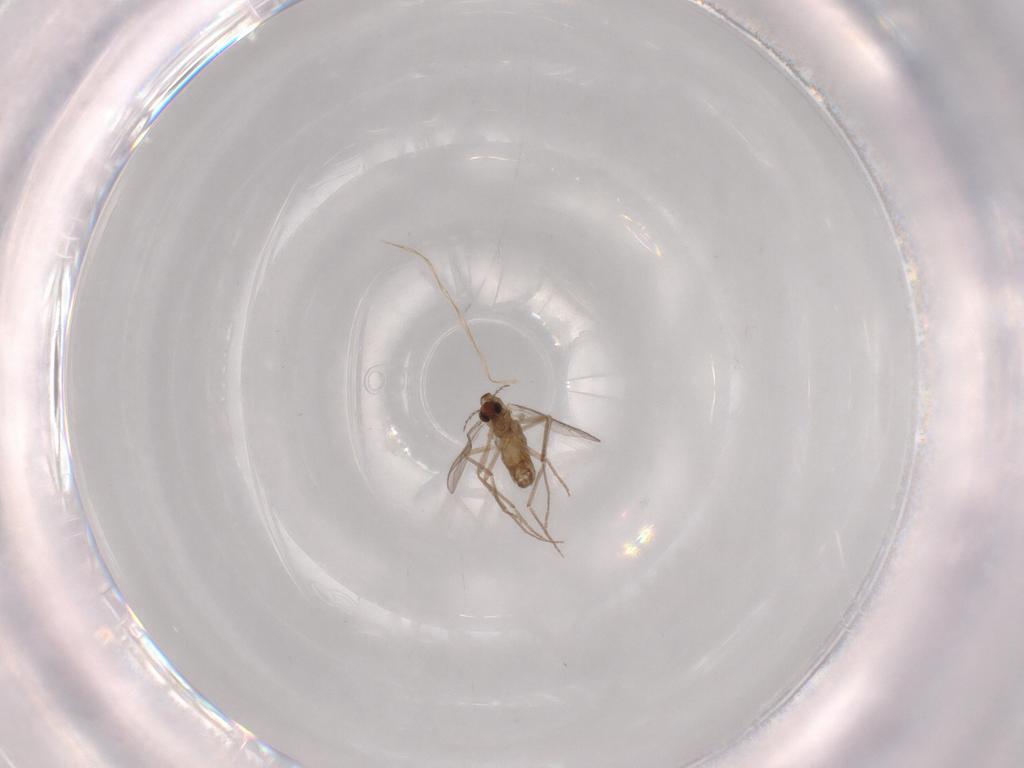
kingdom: Animalia
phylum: Arthropoda
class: Insecta
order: Diptera
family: Chironomidae
